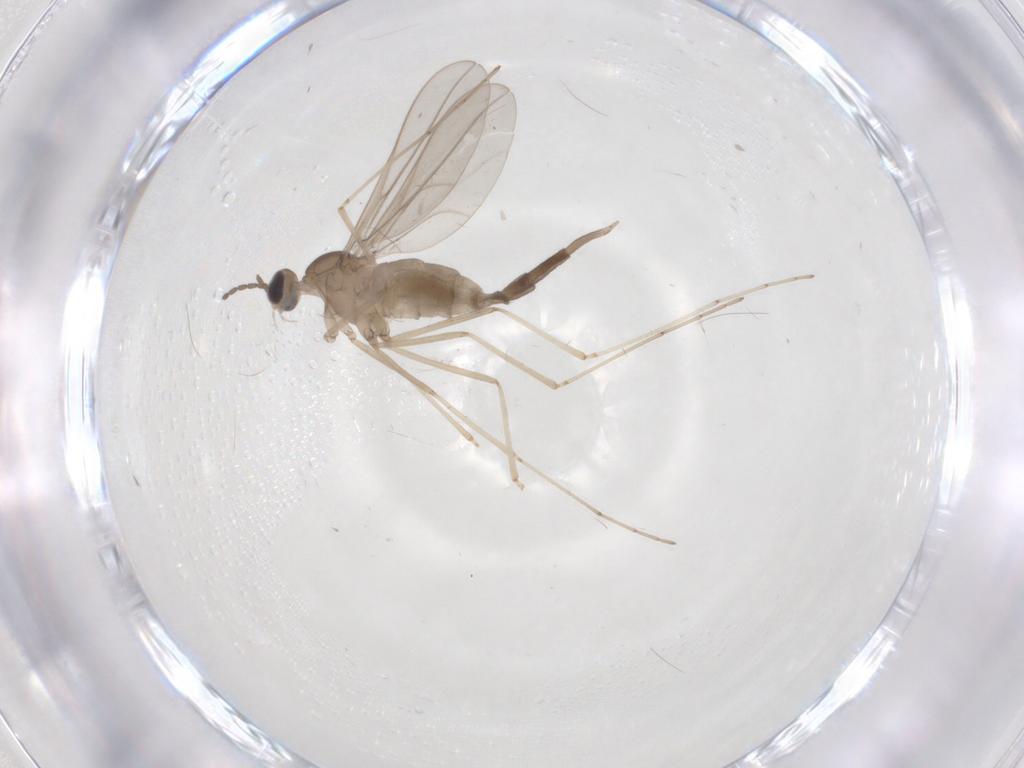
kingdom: Animalia
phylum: Arthropoda
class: Insecta
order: Diptera
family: Cecidomyiidae
